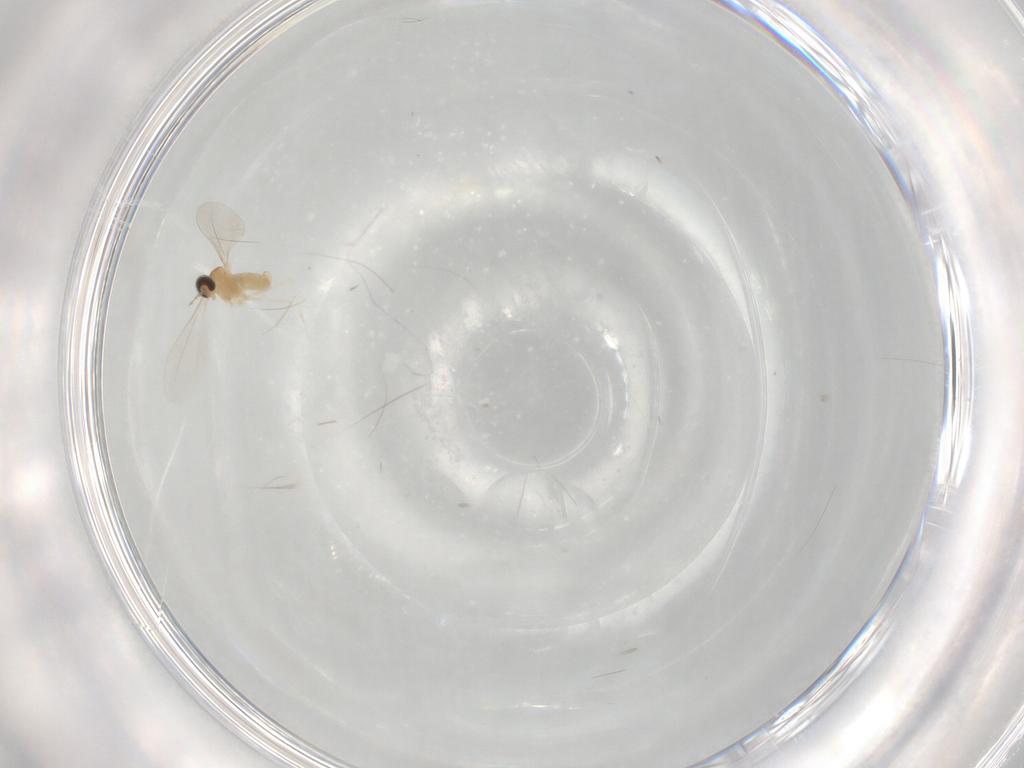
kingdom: Animalia
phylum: Arthropoda
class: Insecta
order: Diptera
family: Cecidomyiidae
